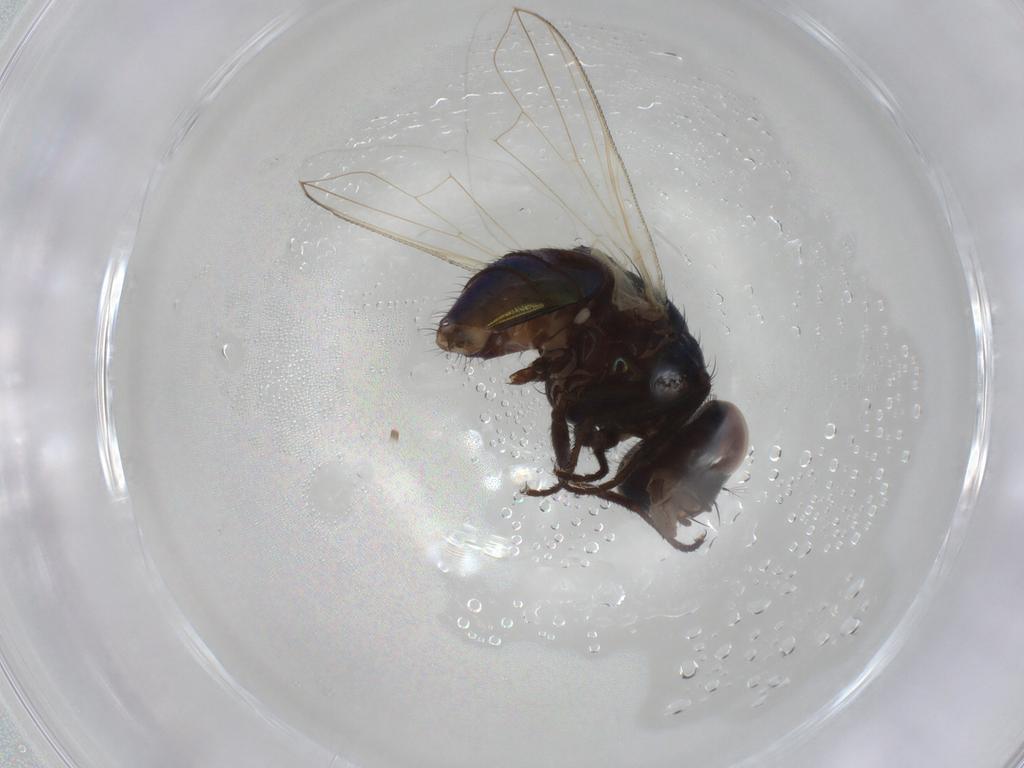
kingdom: Animalia
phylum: Arthropoda
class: Insecta
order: Diptera
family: Muscidae
